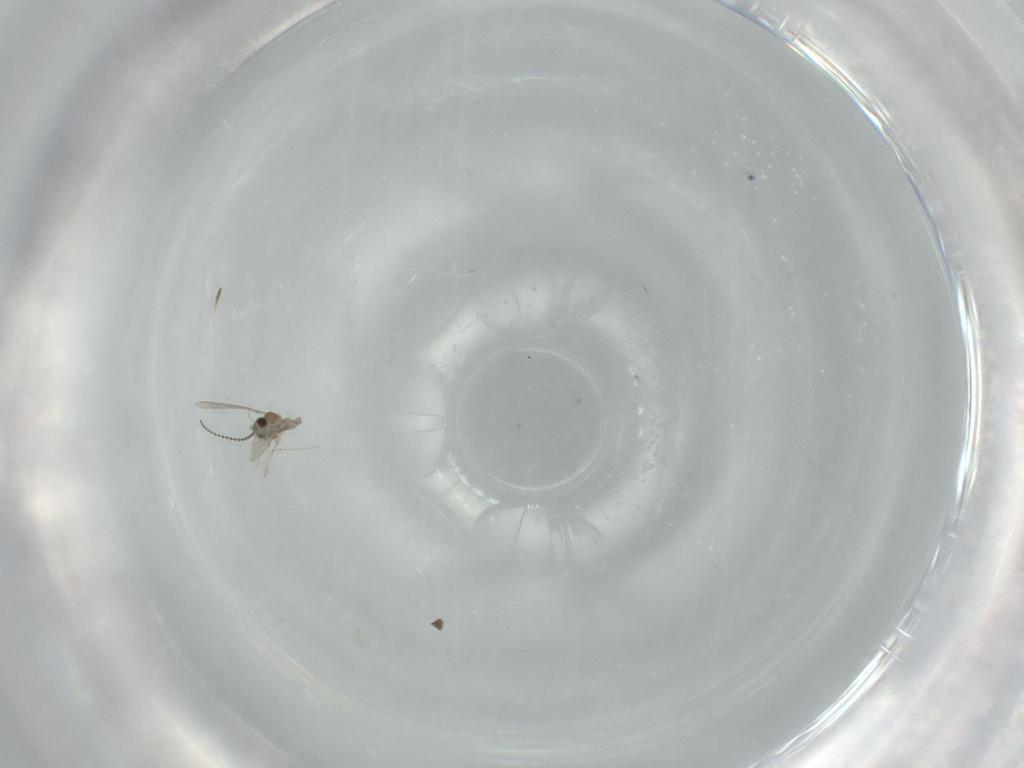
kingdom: Animalia
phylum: Arthropoda
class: Insecta
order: Diptera
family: Cecidomyiidae
